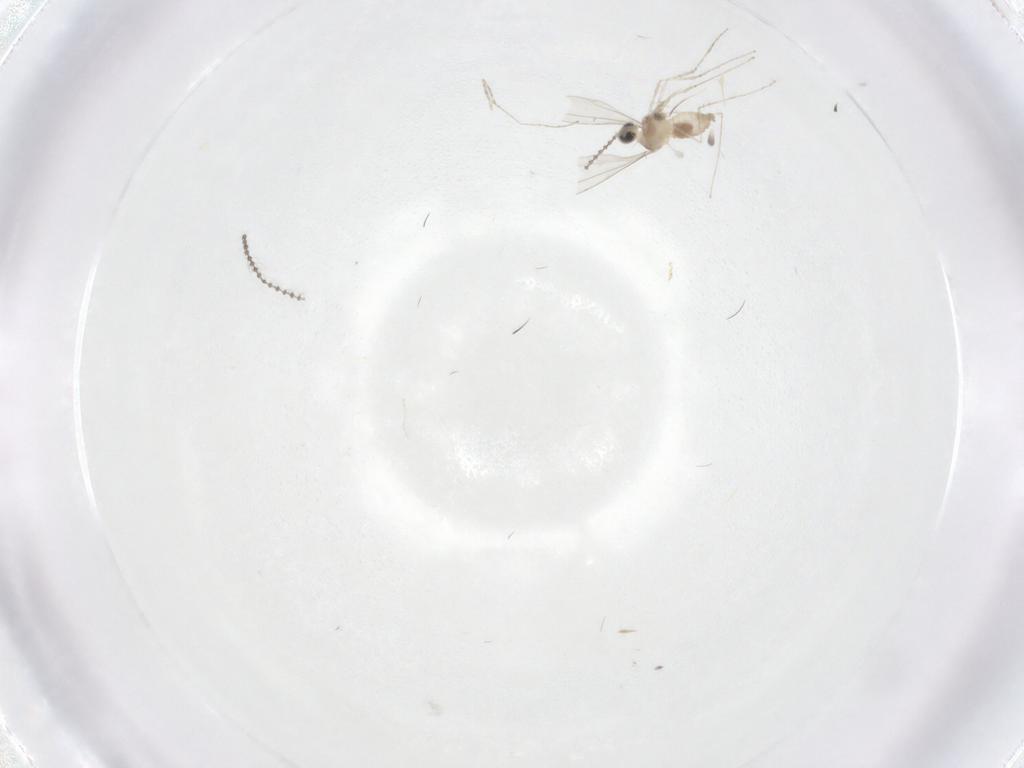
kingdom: Animalia
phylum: Arthropoda
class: Insecta
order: Diptera
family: Cecidomyiidae
